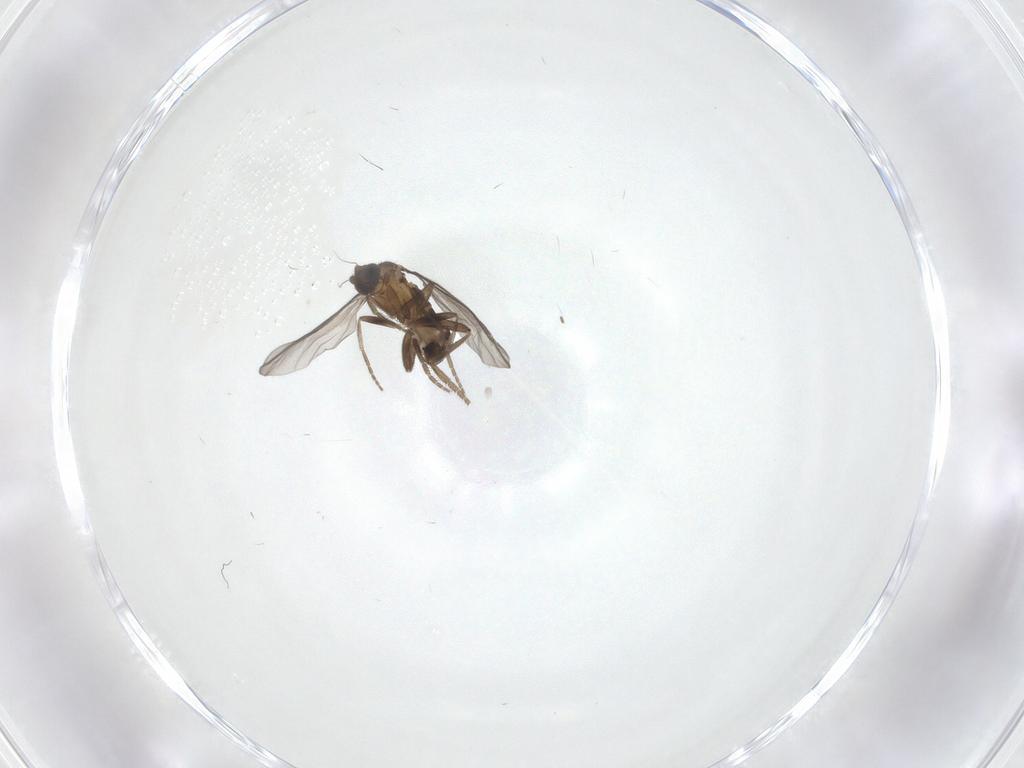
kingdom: Animalia
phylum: Arthropoda
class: Insecta
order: Diptera
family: Phoridae
